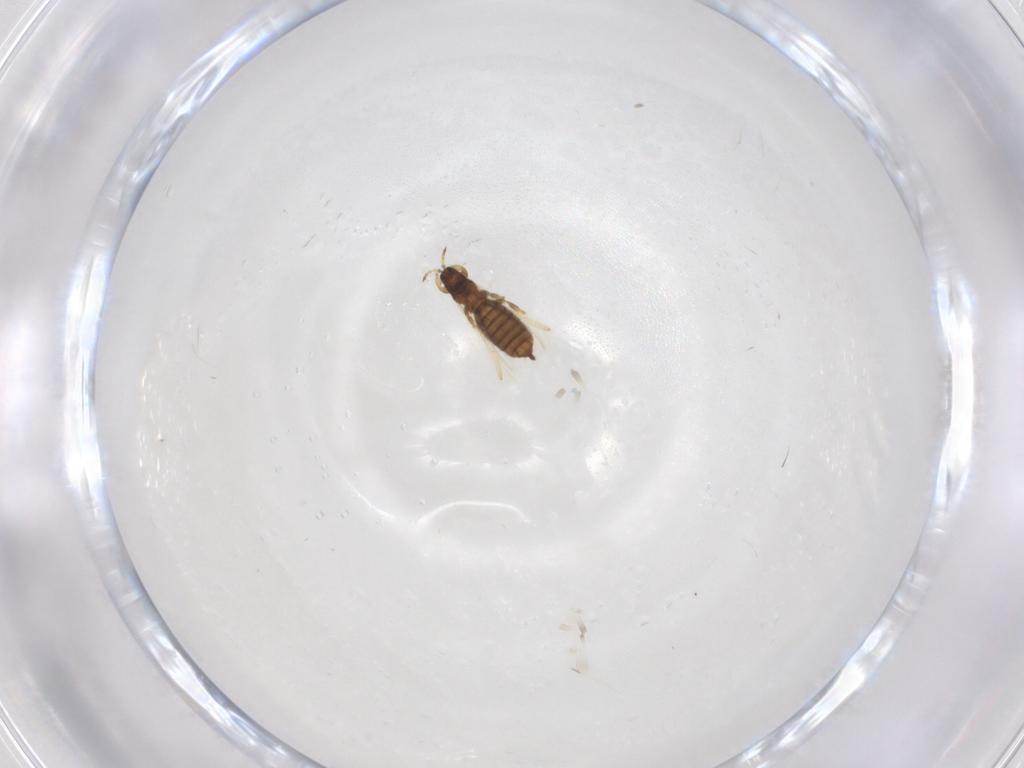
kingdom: Animalia
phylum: Arthropoda
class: Insecta
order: Thysanoptera
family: Thripidae
